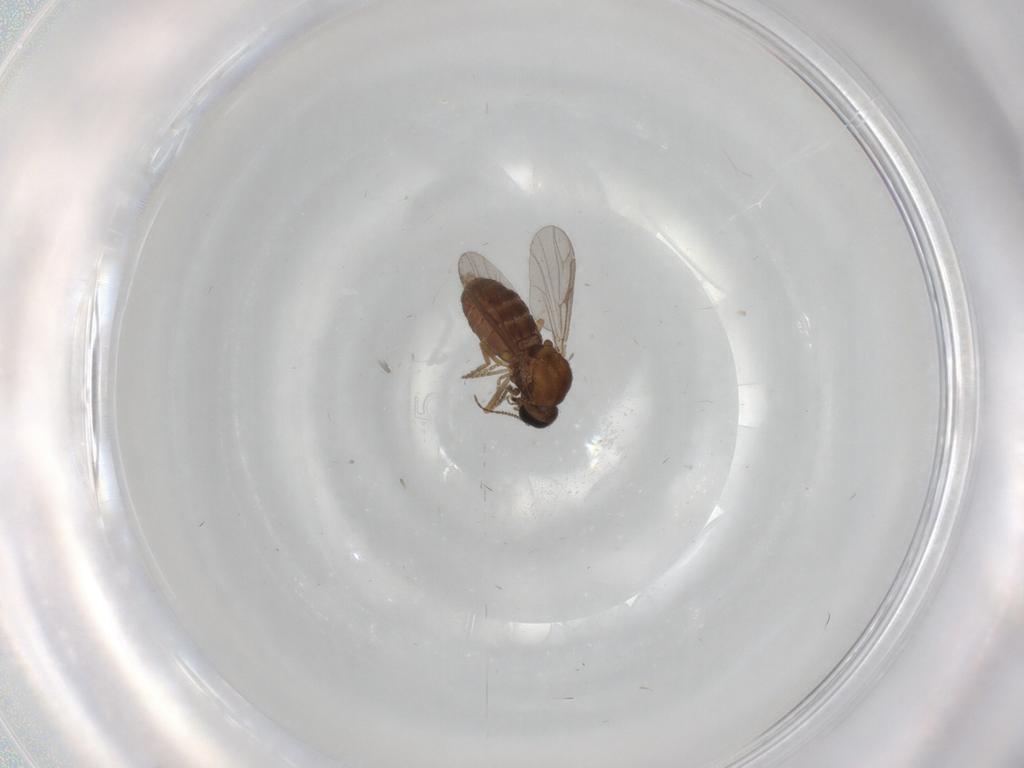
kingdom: Animalia
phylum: Arthropoda
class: Insecta
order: Diptera
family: Ceratopogonidae
